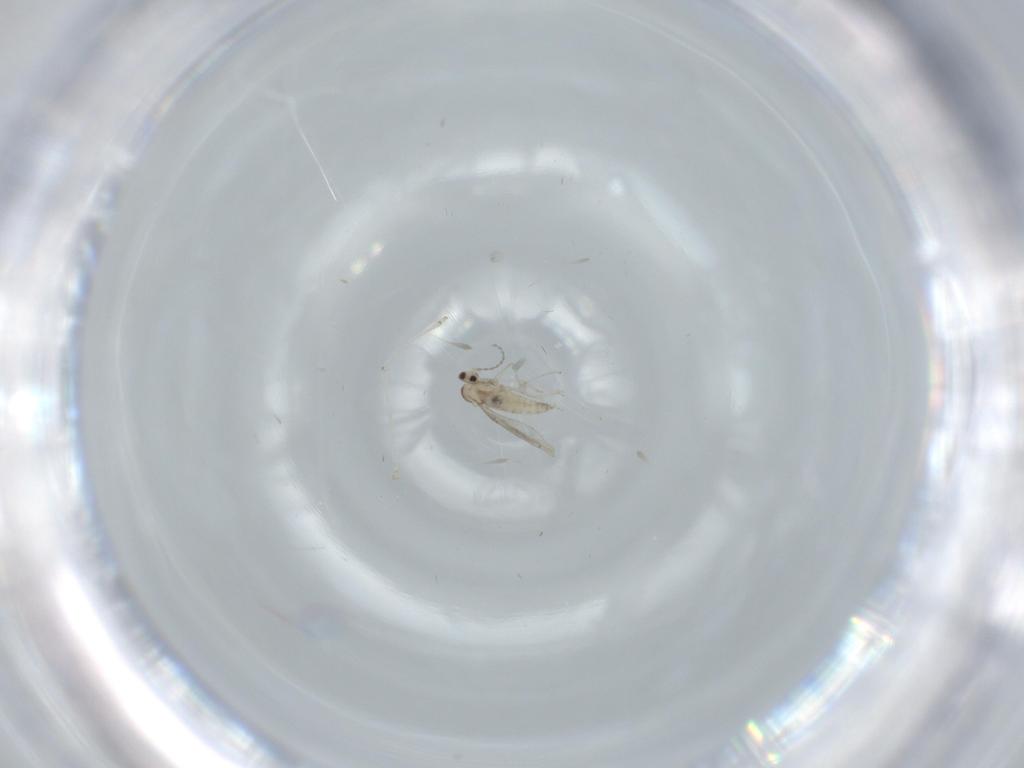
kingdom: Animalia
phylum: Arthropoda
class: Insecta
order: Diptera
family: Cecidomyiidae
